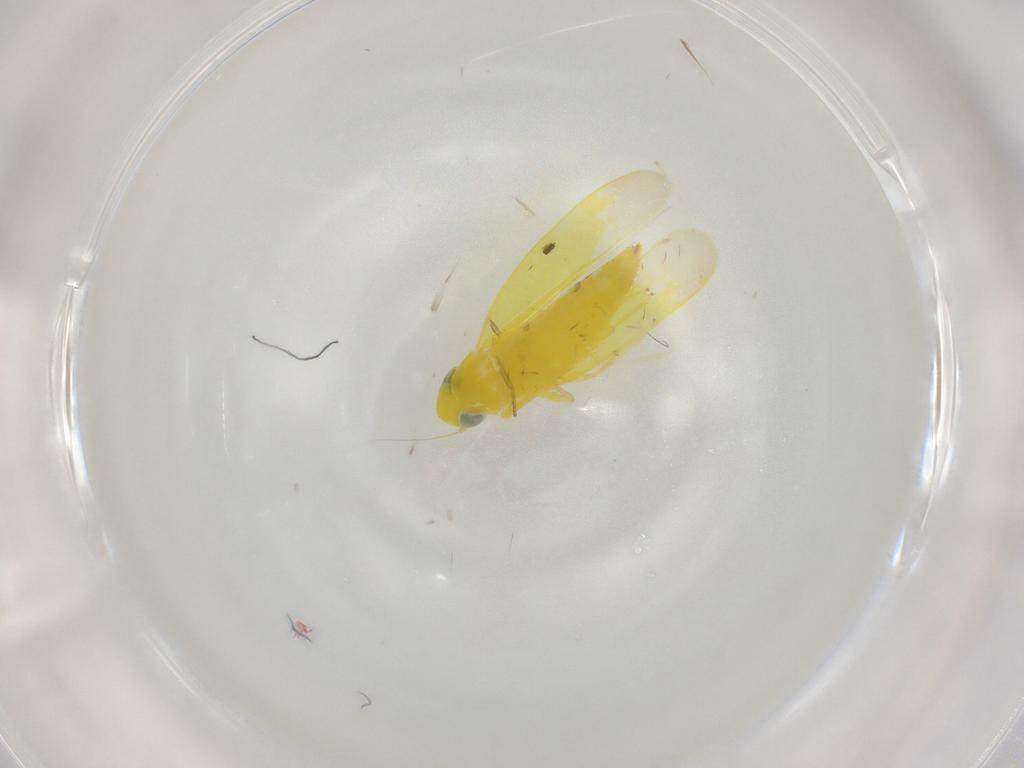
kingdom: Animalia
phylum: Arthropoda
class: Insecta
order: Hemiptera
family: Cicadellidae
